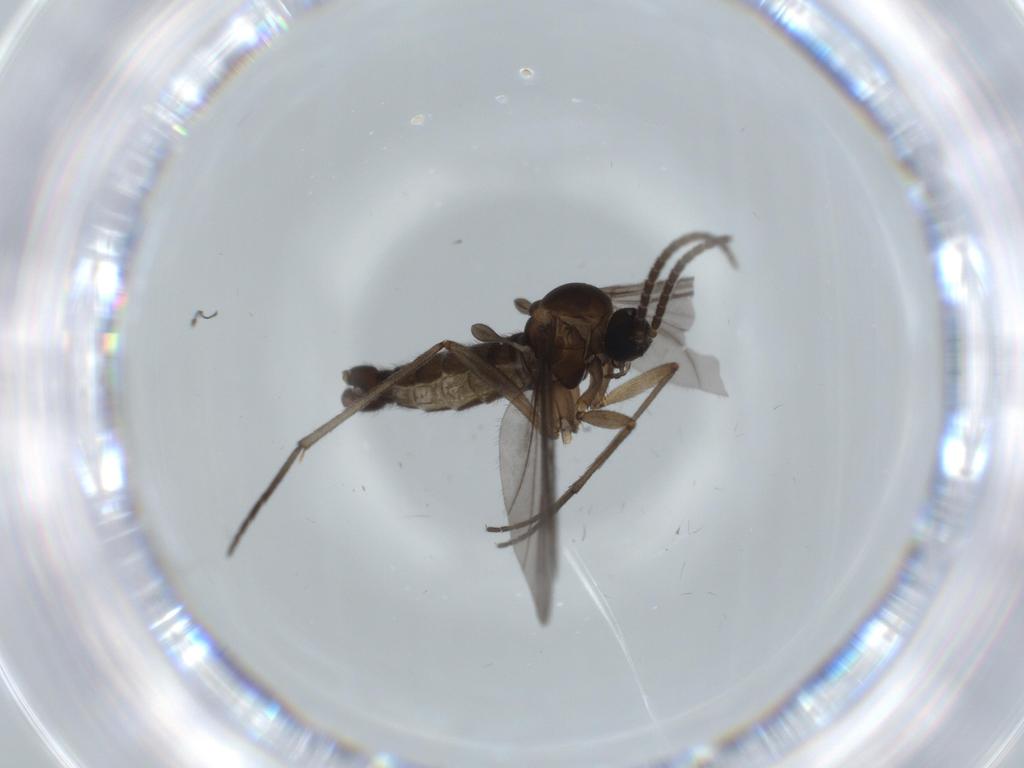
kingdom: Animalia
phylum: Arthropoda
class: Insecta
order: Diptera
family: Sciaridae
